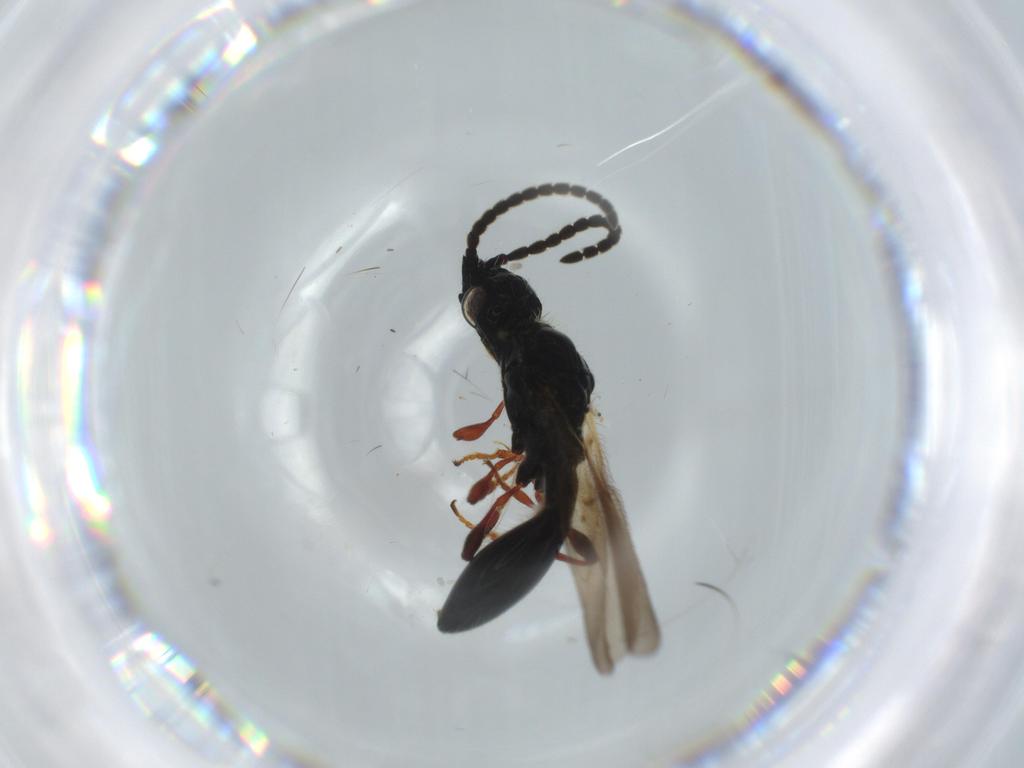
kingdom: Animalia
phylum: Arthropoda
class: Insecta
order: Hymenoptera
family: Diapriidae
